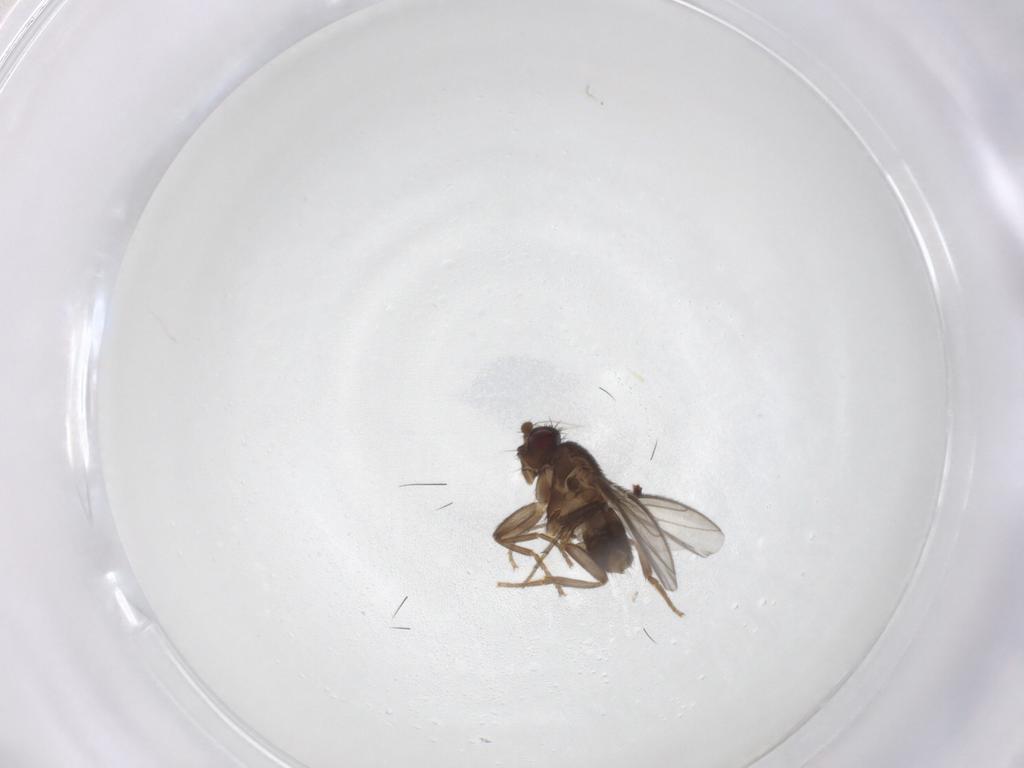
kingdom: Animalia
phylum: Arthropoda
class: Insecta
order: Diptera
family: Sphaeroceridae
